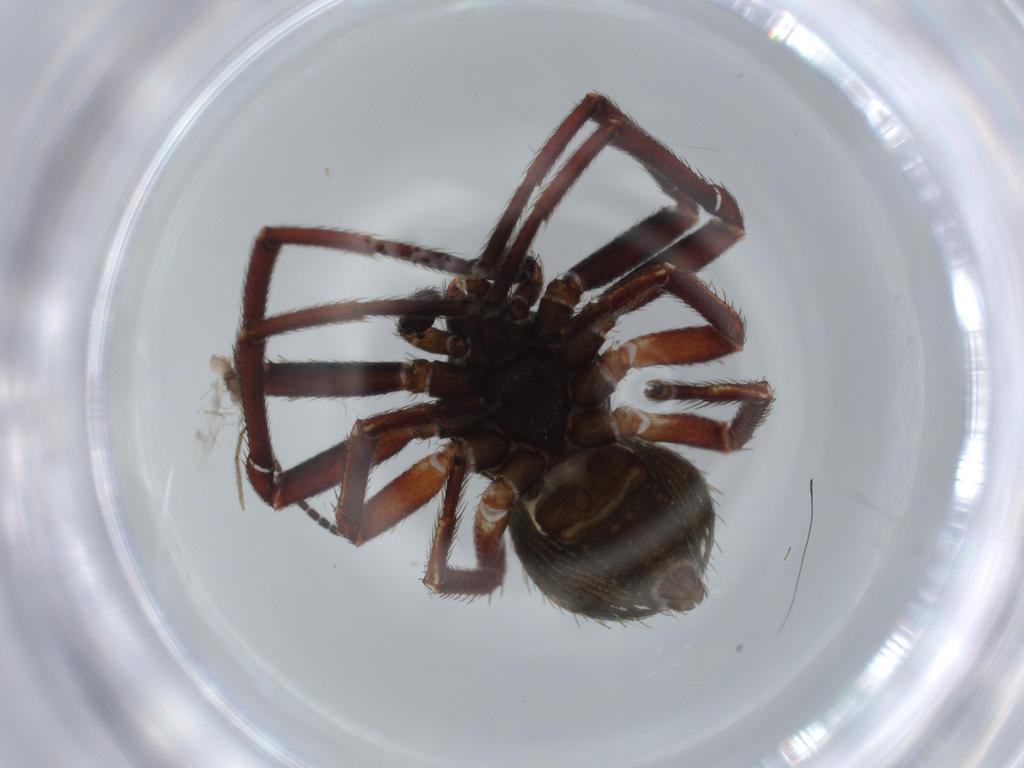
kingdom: Animalia
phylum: Arthropoda
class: Arachnida
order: Araneae
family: Thomisidae
